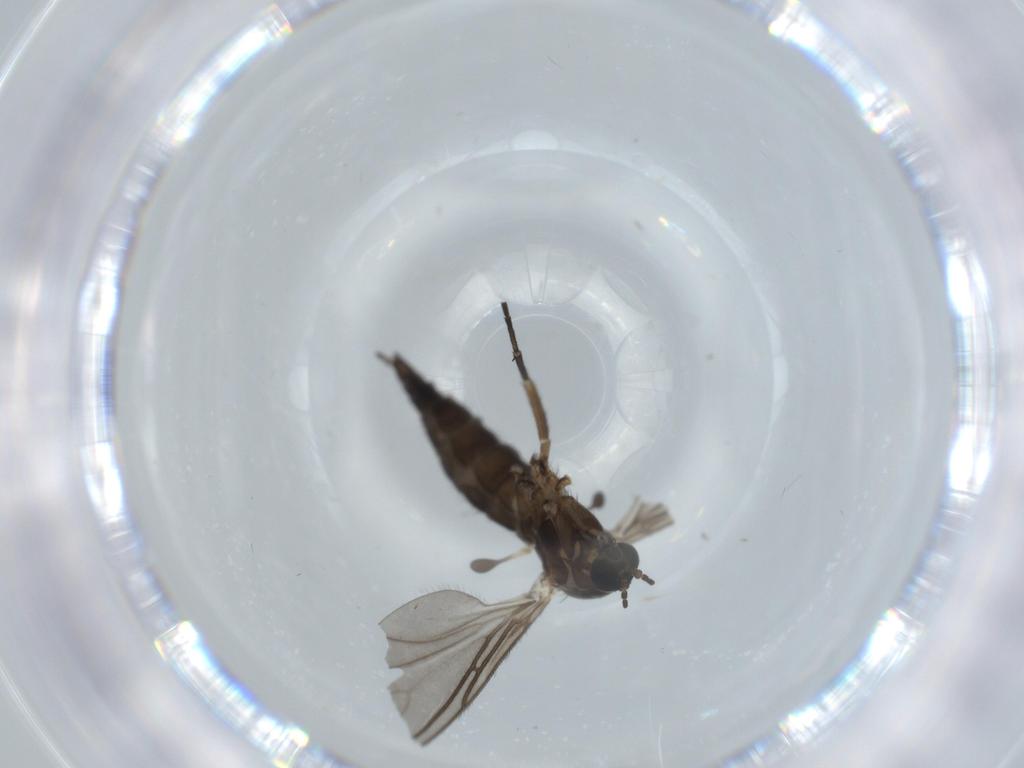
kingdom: Animalia
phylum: Arthropoda
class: Insecta
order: Diptera
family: Sciaridae
